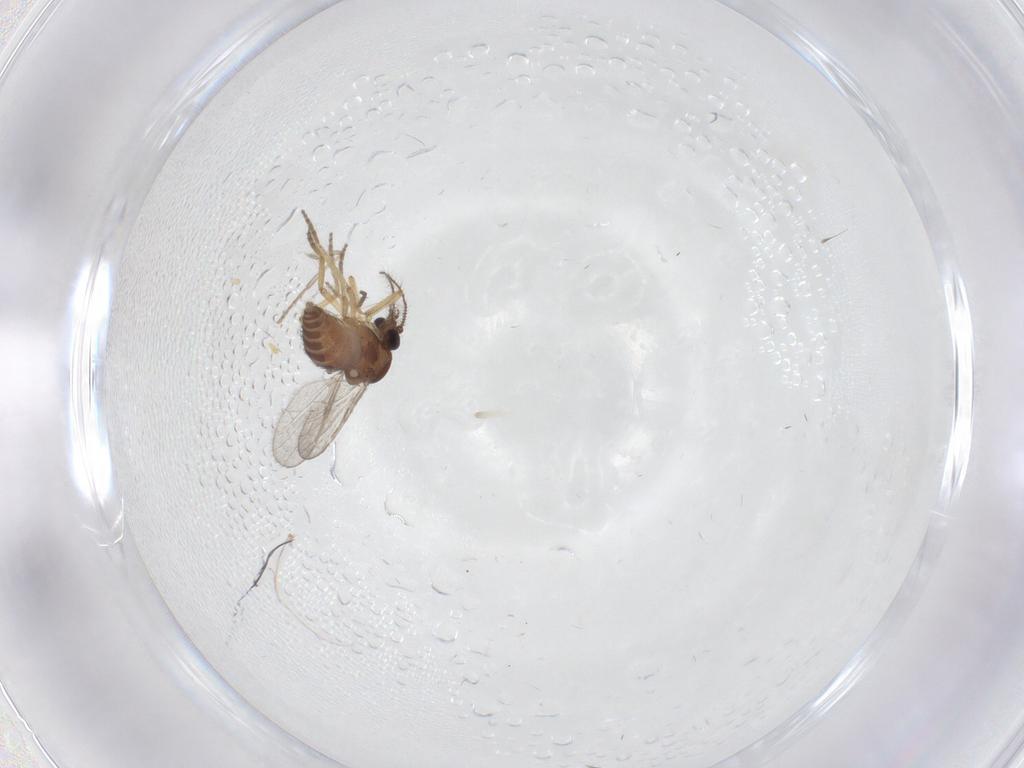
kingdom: Animalia
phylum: Arthropoda
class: Insecta
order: Diptera
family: Ceratopogonidae
